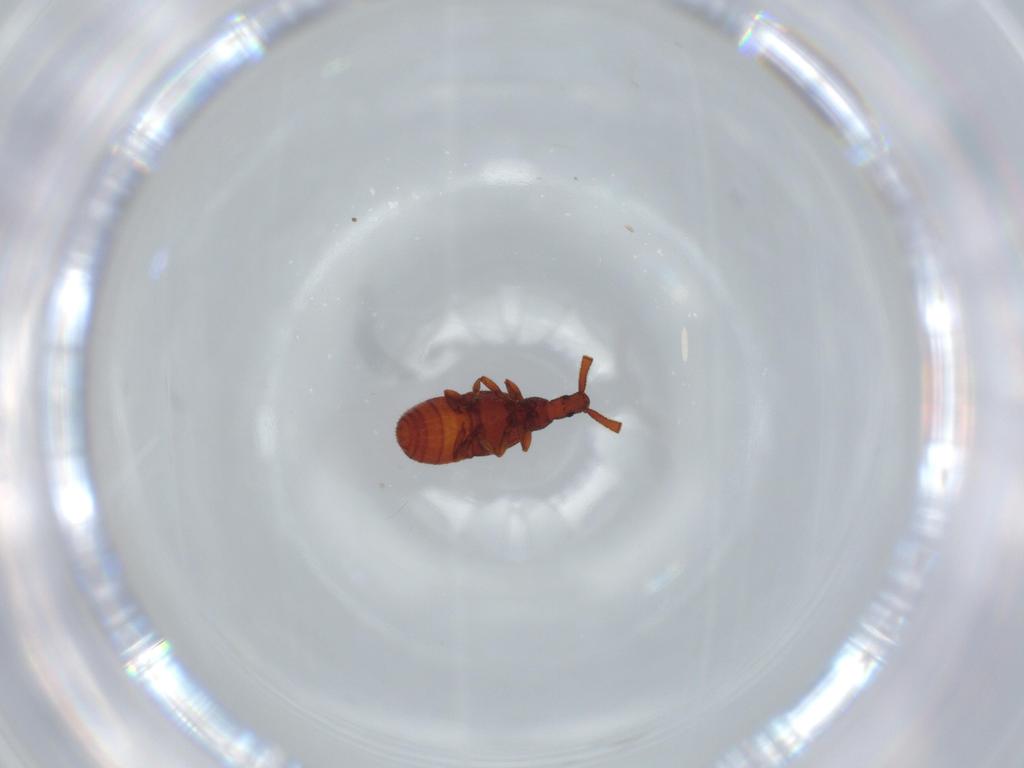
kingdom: Animalia
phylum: Arthropoda
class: Insecta
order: Coleoptera
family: Staphylinidae
